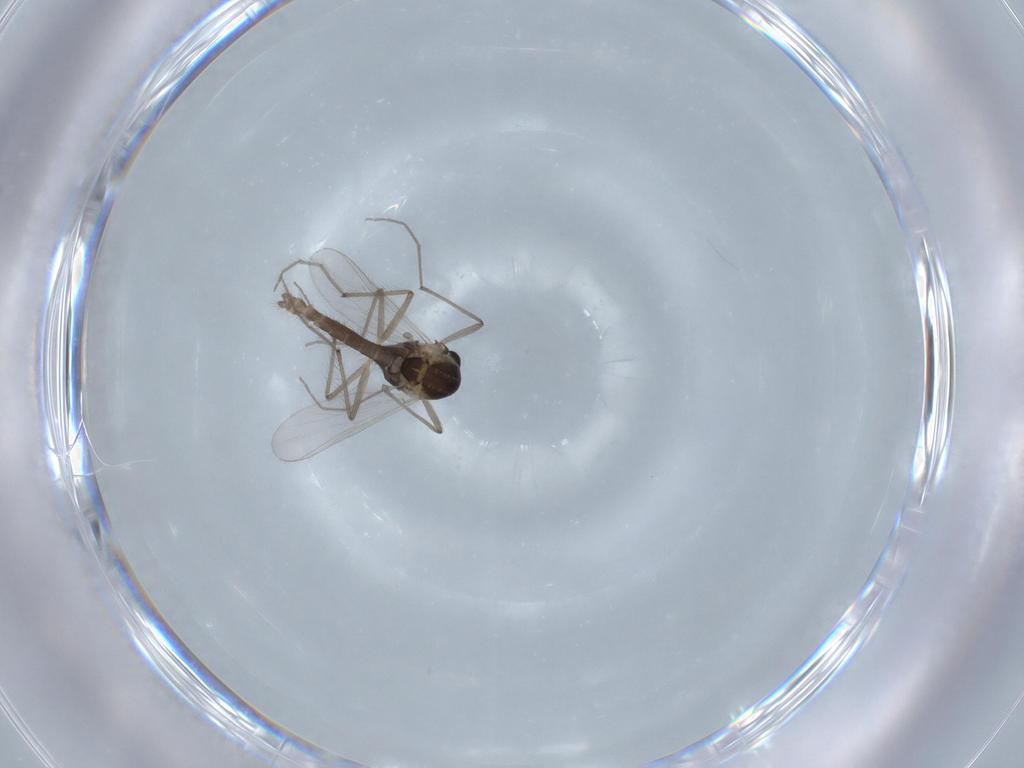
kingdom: Animalia
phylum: Arthropoda
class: Insecta
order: Diptera
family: Chironomidae
